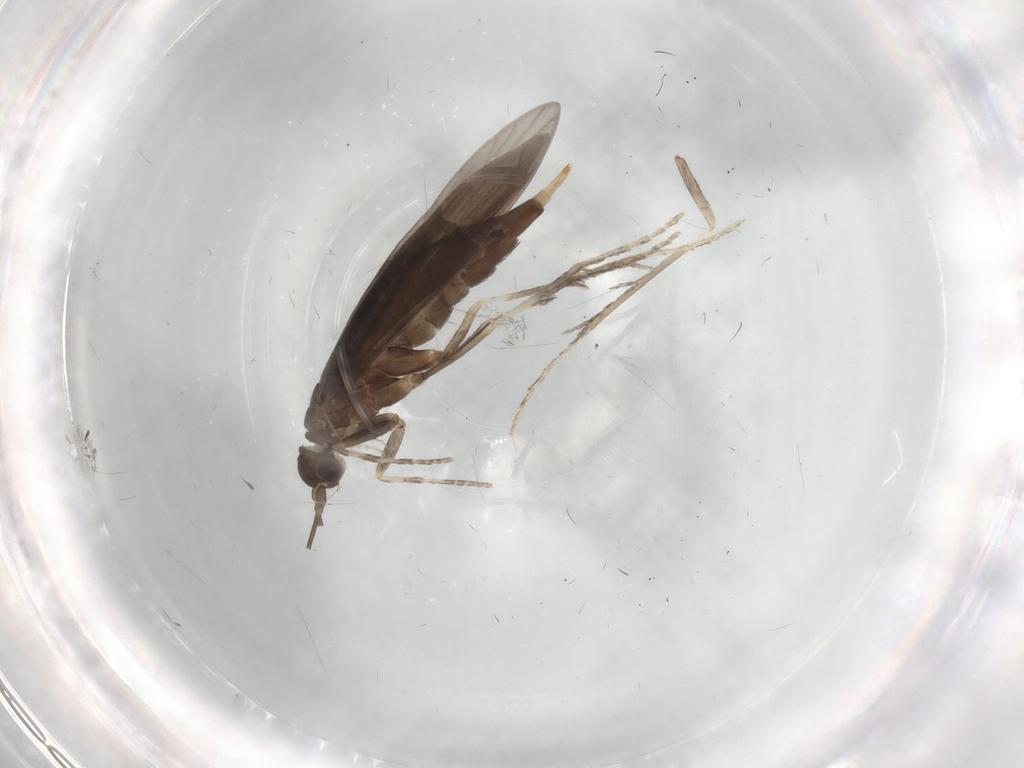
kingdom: Animalia
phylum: Arthropoda
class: Insecta
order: Trichoptera
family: Xiphocentronidae
